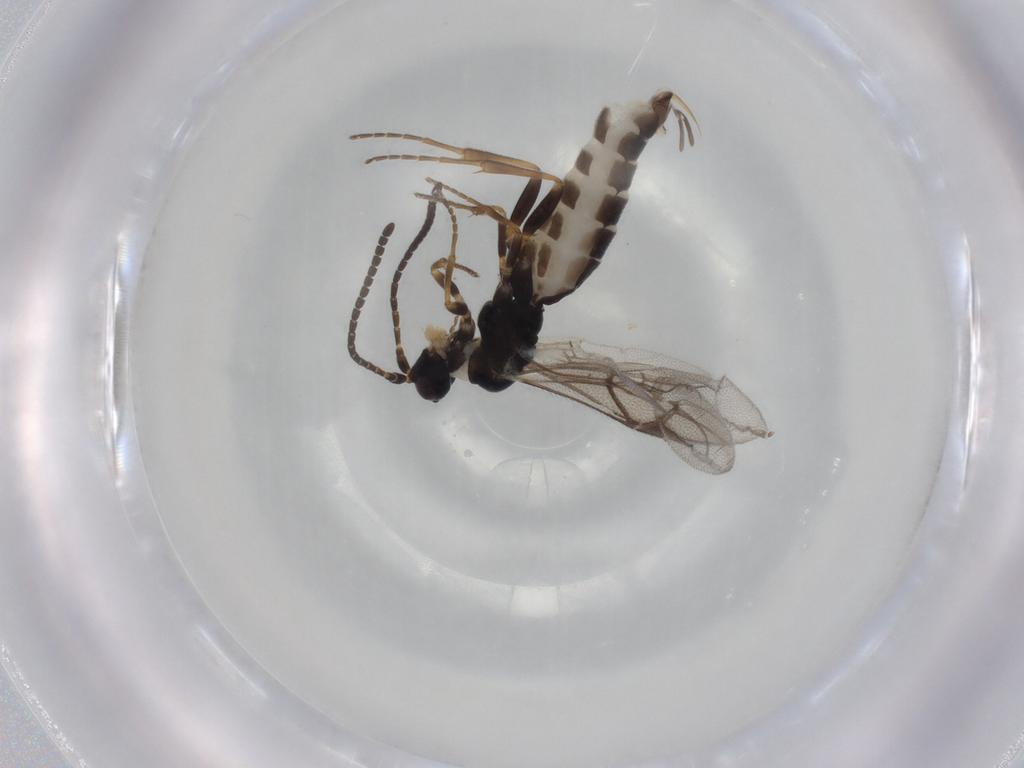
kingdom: Animalia
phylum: Arthropoda
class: Insecta
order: Hymenoptera
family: Ichneumonidae
